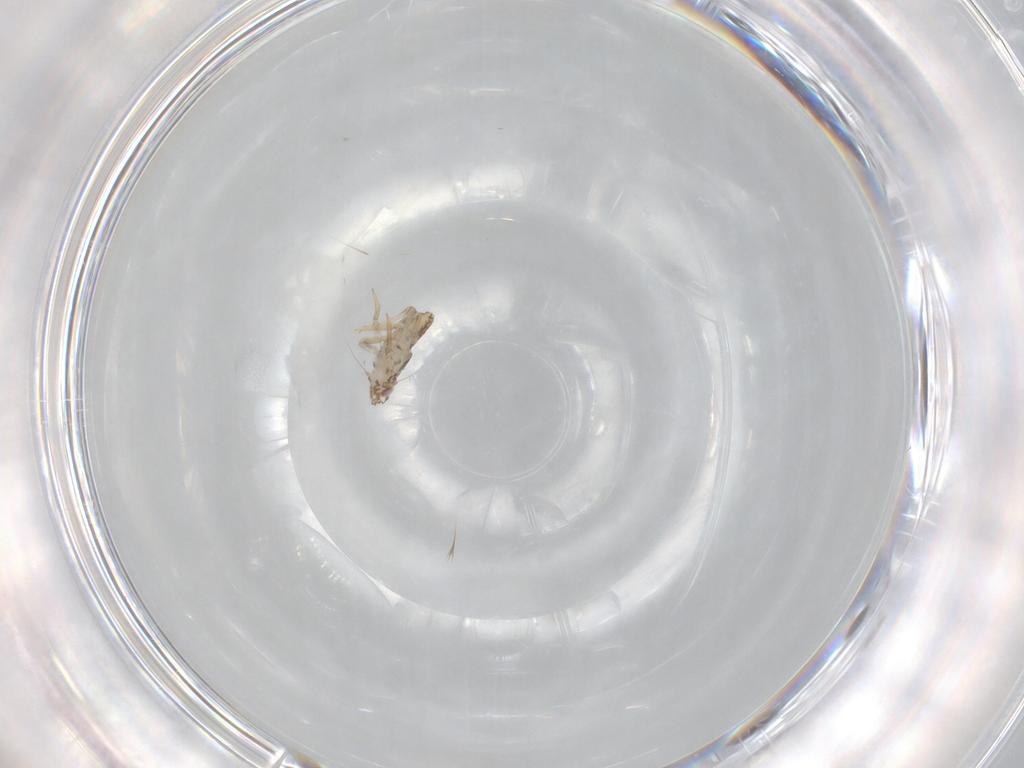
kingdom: Animalia
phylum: Arthropoda
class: Insecta
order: Hemiptera
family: Delphacidae
